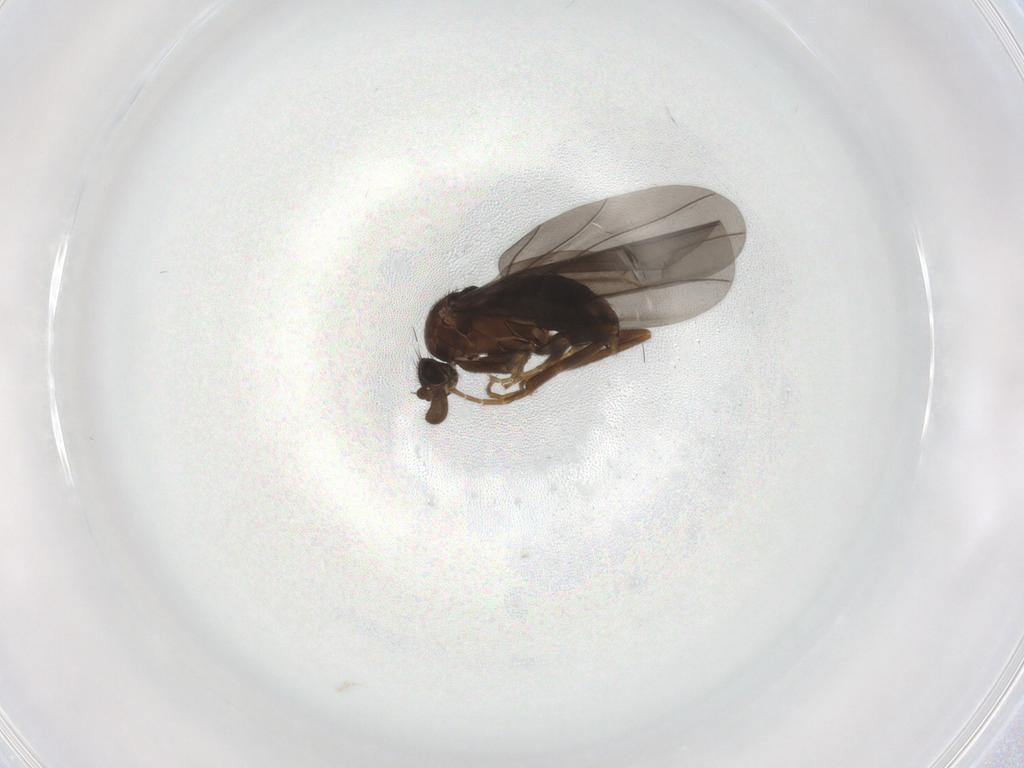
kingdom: Animalia
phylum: Arthropoda
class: Insecta
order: Diptera
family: Sciaridae
